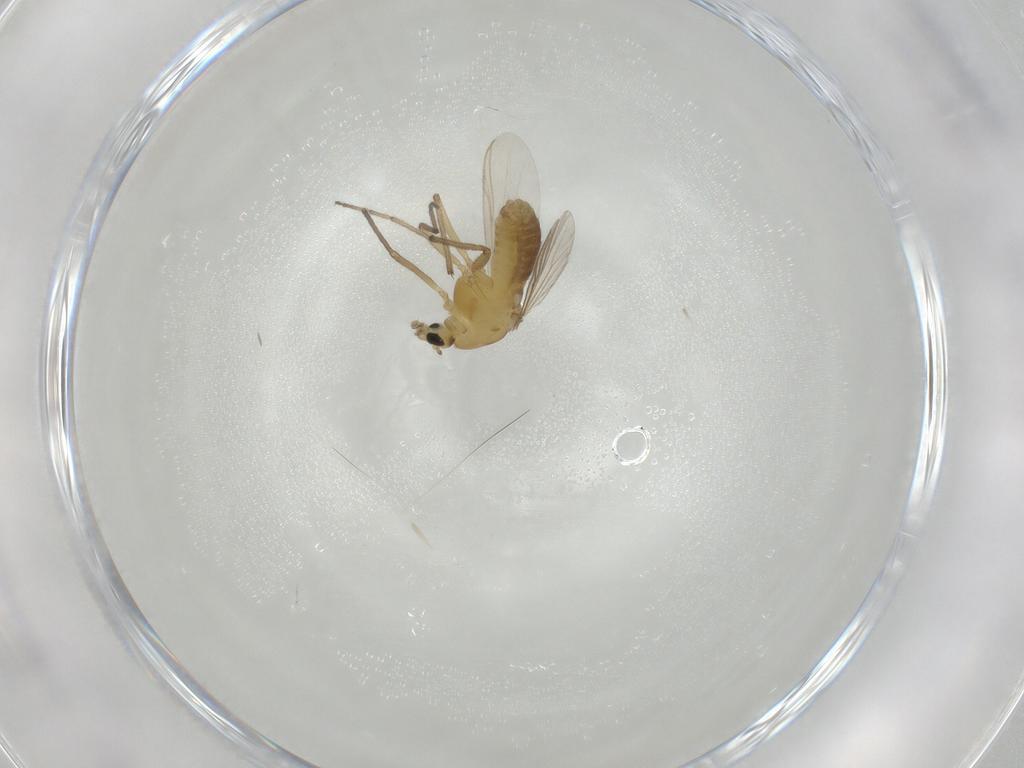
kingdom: Animalia
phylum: Arthropoda
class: Insecta
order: Diptera
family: Chironomidae
